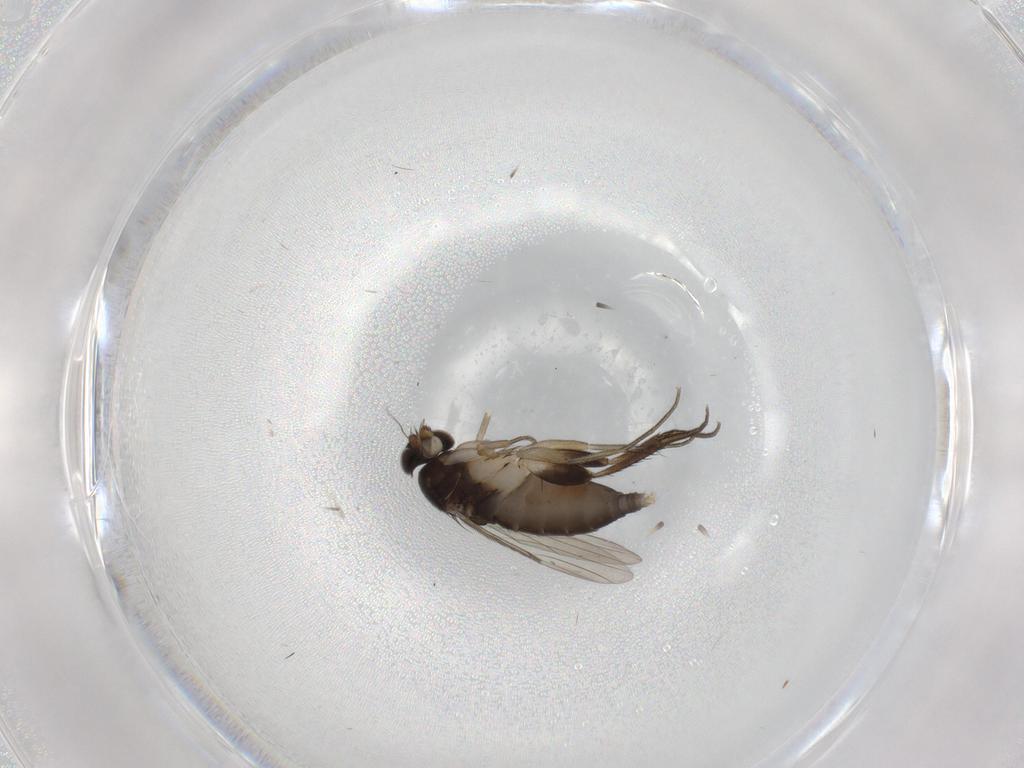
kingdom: Animalia
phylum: Arthropoda
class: Insecta
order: Diptera
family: Phoridae
